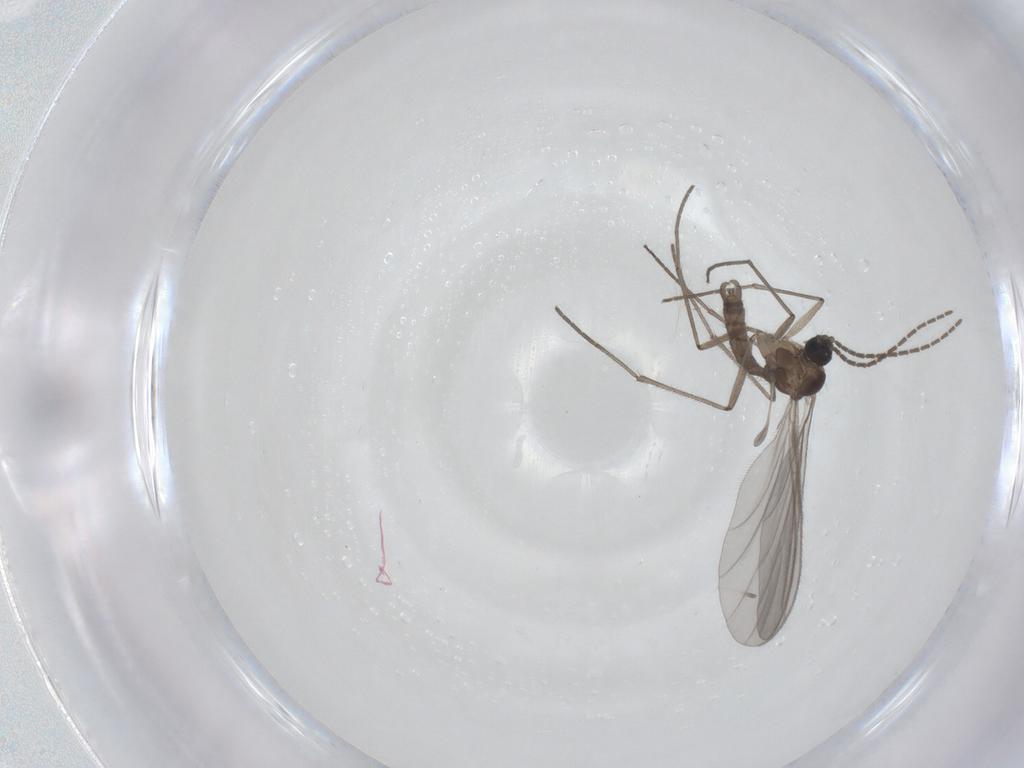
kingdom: Animalia
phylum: Arthropoda
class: Insecta
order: Diptera
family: Sciaridae
